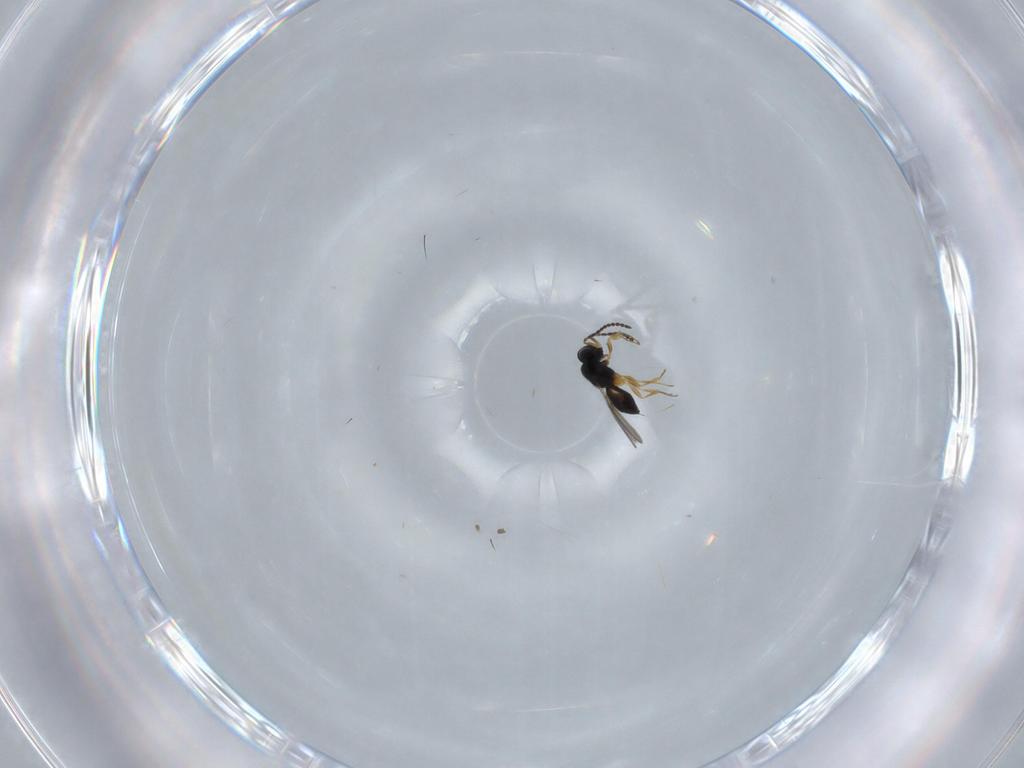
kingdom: Animalia
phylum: Arthropoda
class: Insecta
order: Hymenoptera
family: Scelionidae
